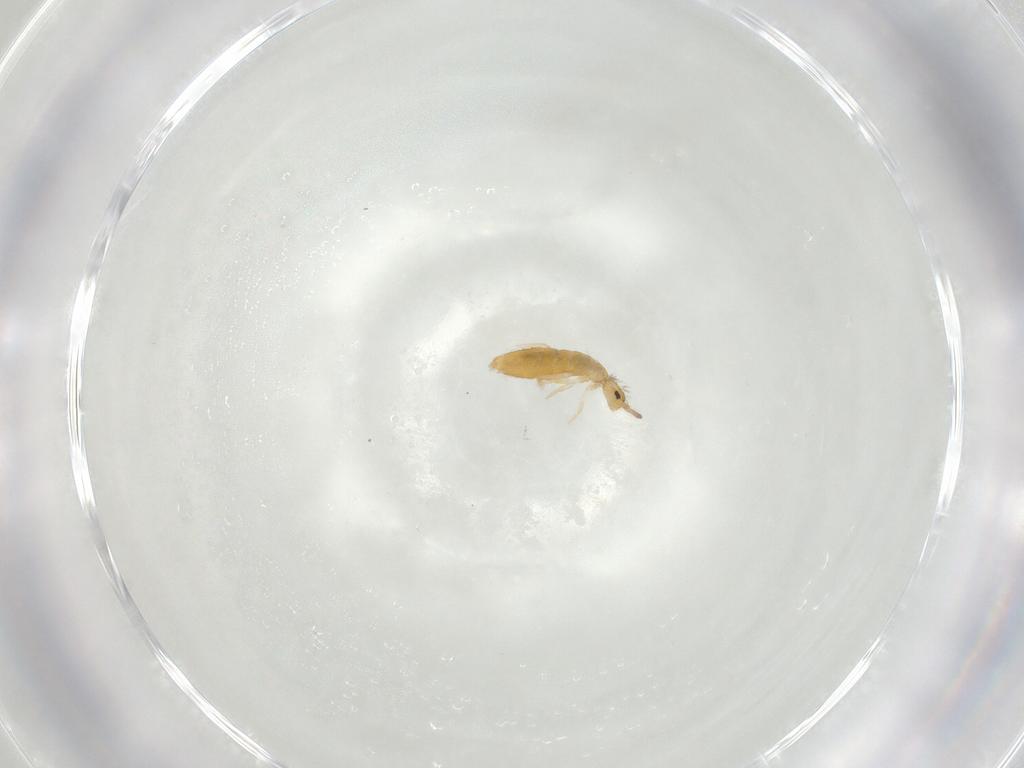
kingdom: Animalia
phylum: Arthropoda
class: Collembola
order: Entomobryomorpha
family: Entomobryidae
